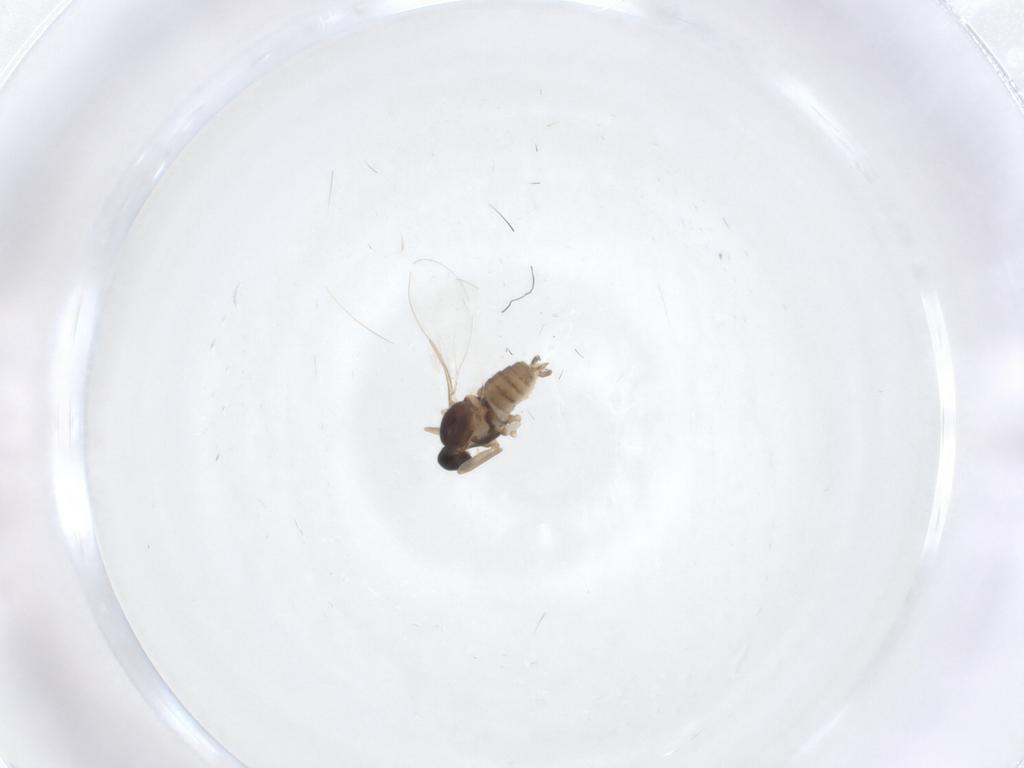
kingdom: Animalia
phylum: Arthropoda
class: Insecta
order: Diptera
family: Cecidomyiidae
